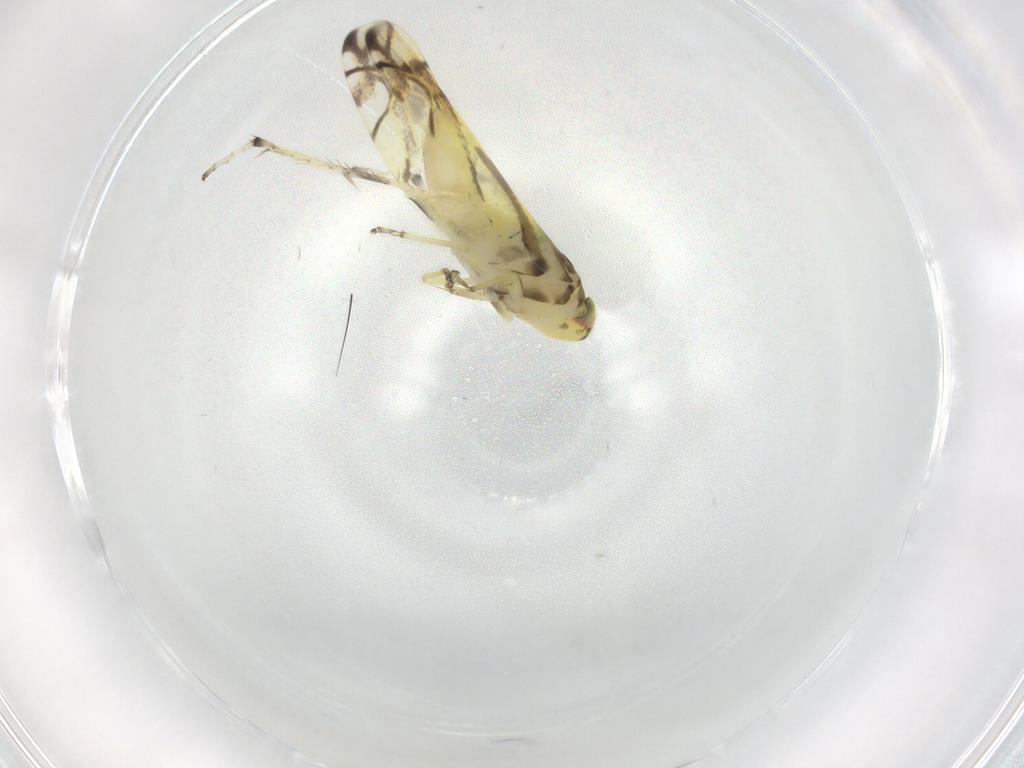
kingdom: Animalia
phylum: Arthropoda
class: Insecta
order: Hemiptera
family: Cicadellidae
